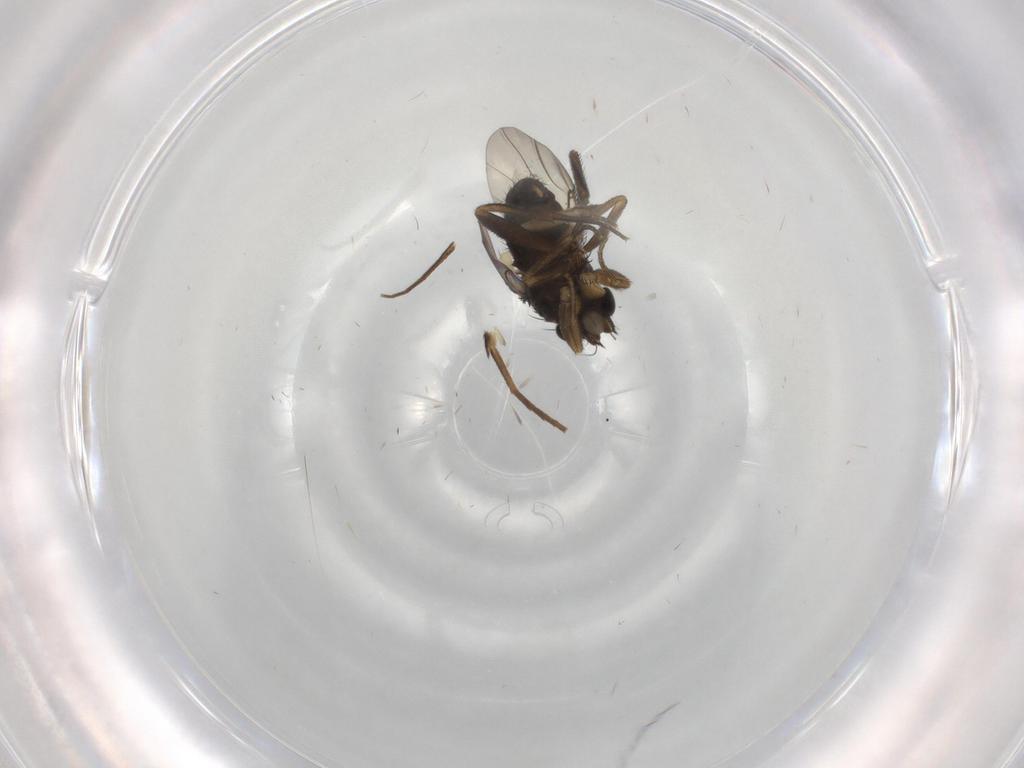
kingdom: Animalia
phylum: Arthropoda
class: Insecta
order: Diptera
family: Phoridae
